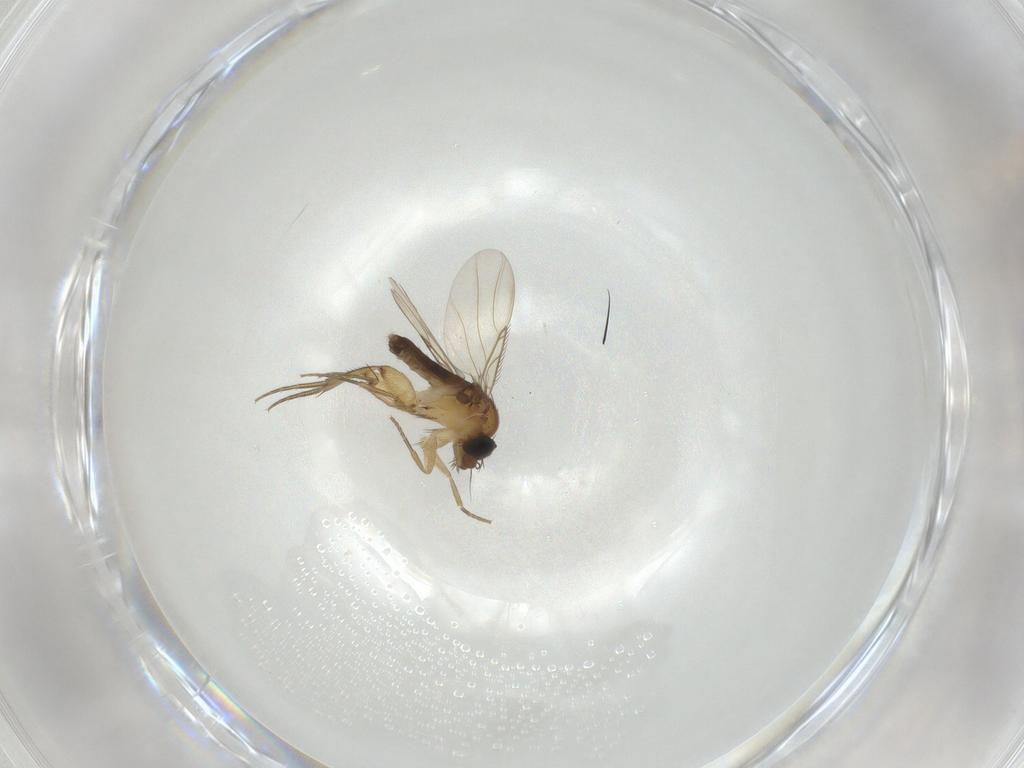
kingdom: Animalia
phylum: Arthropoda
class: Insecta
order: Diptera
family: Phoridae
